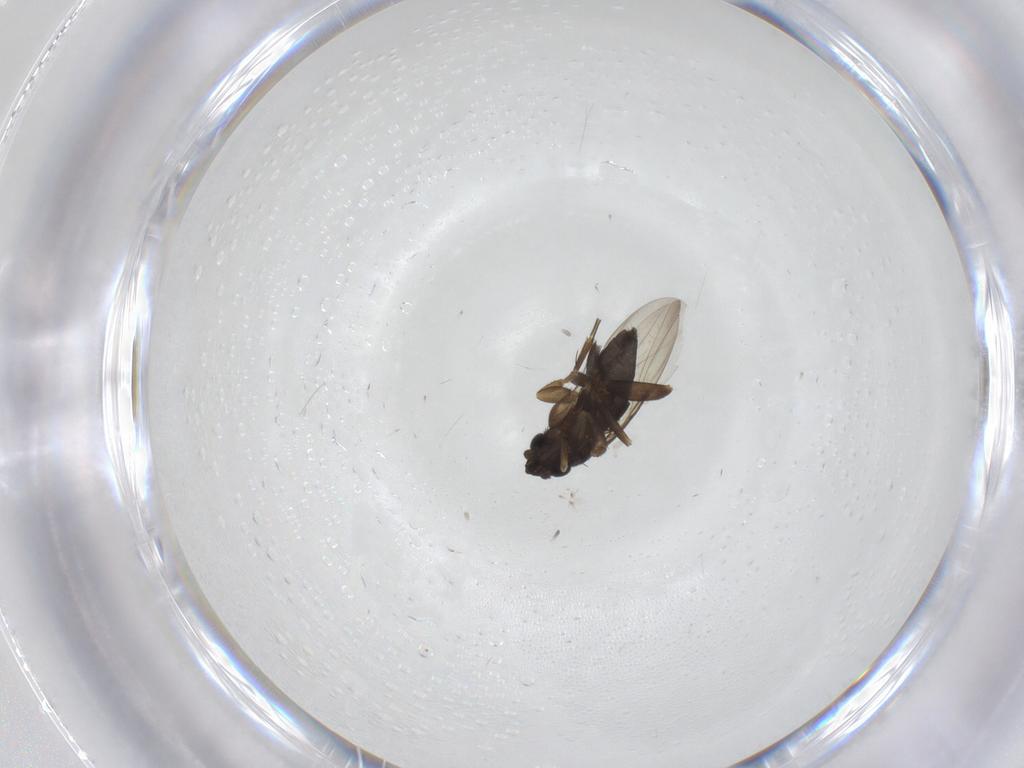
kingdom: Animalia
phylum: Arthropoda
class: Insecta
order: Diptera
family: Phoridae
